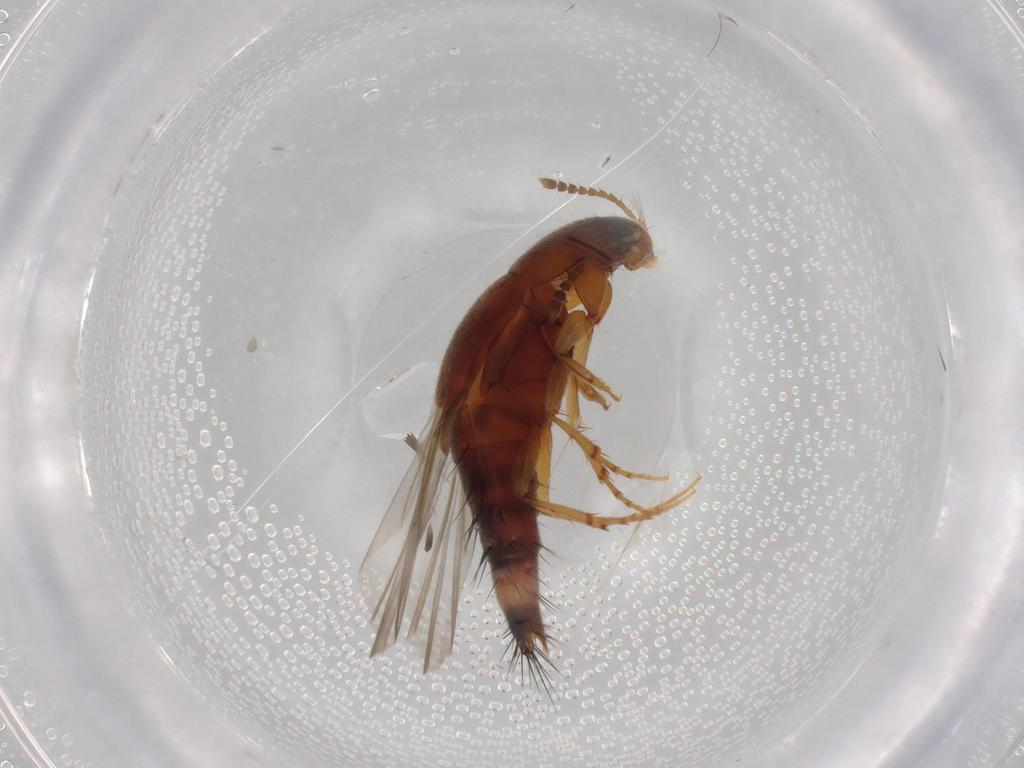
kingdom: Animalia
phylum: Arthropoda
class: Insecta
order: Coleoptera
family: Staphylinidae
